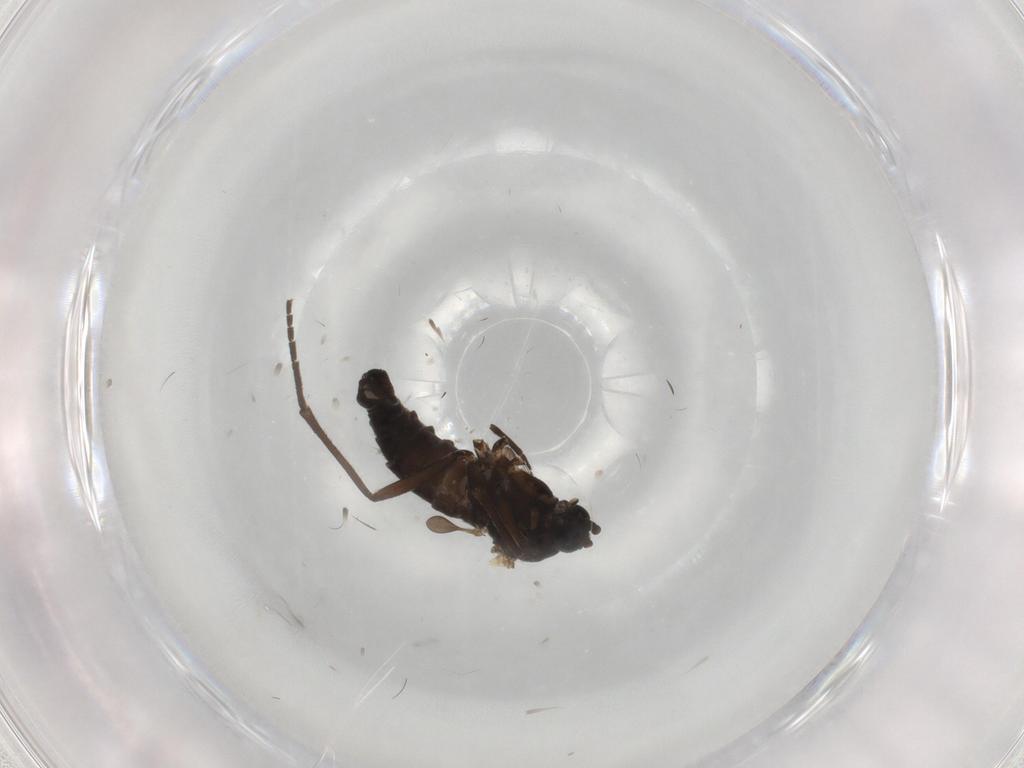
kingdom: Animalia
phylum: Arthropoda
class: Insecta
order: Diptera
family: Sciaridae
